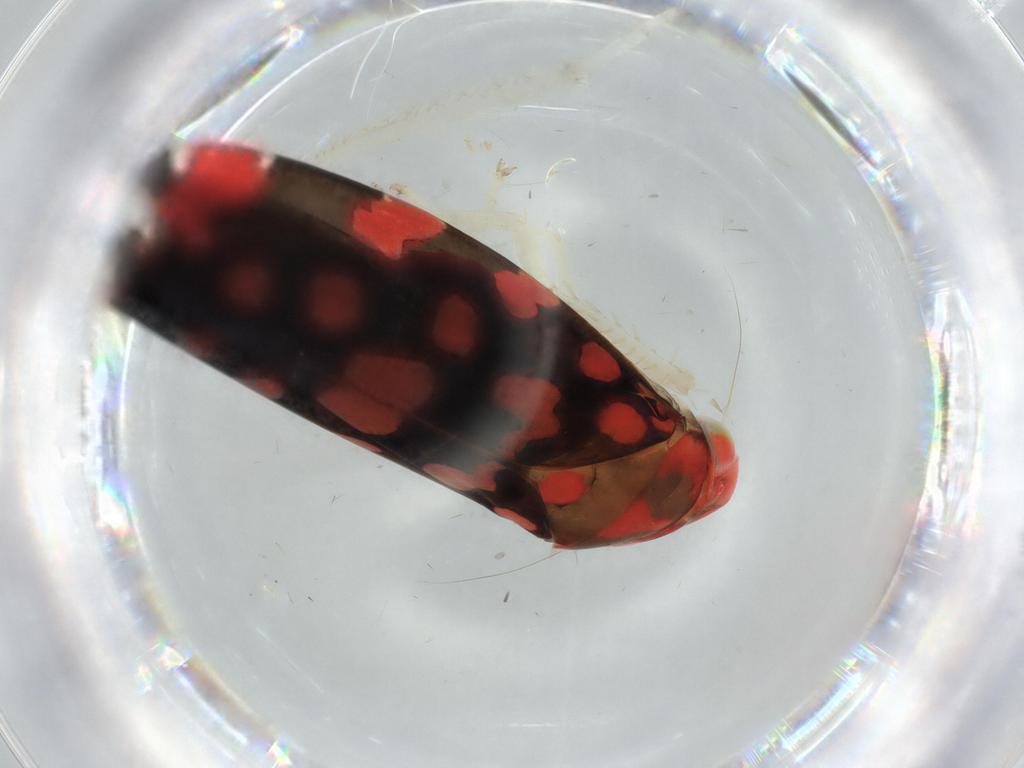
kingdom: Animalia
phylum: Arthropoda
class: Insecta
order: Hemiptera
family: Cicadellidae
